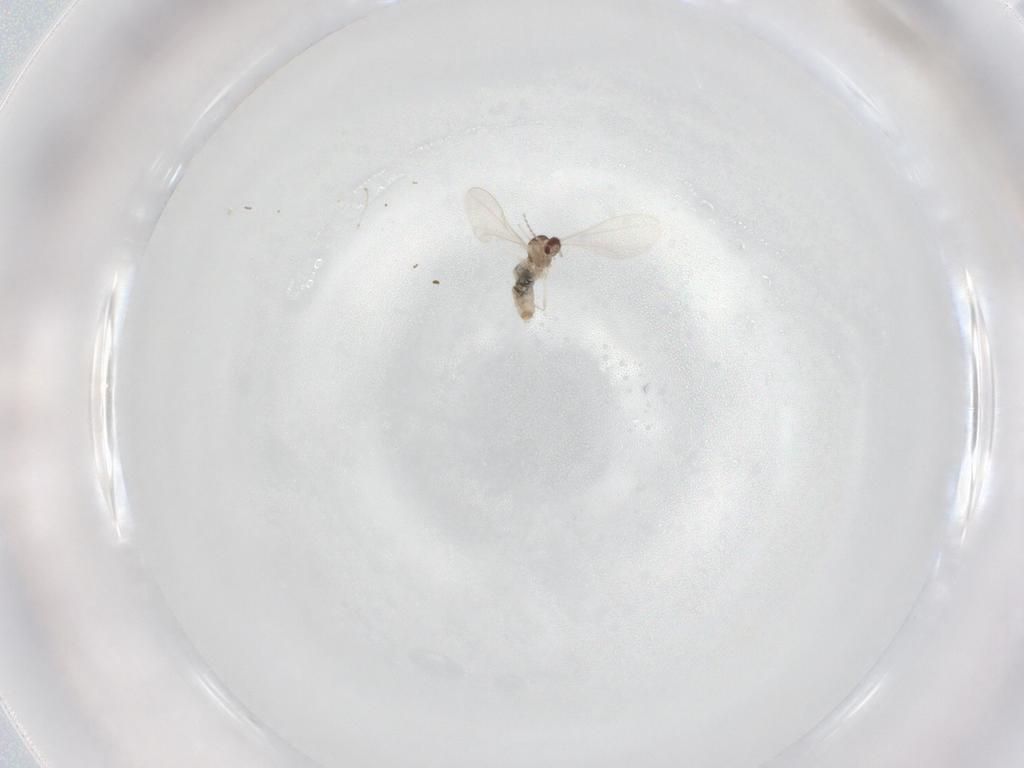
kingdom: Animalia
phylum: Arthropoda
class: Insecta
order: Diptera
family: Cecidomyiidae
